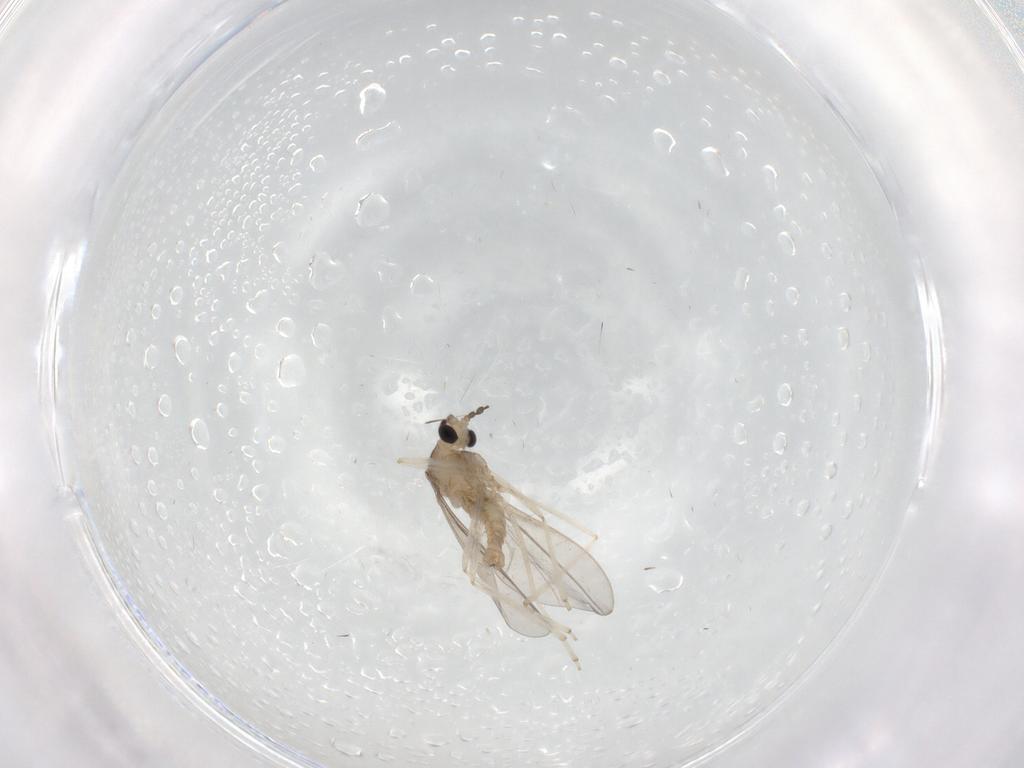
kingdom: Animalia
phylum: Arthropoda
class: Insecta
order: Diptera
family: Cecidomyiidae
